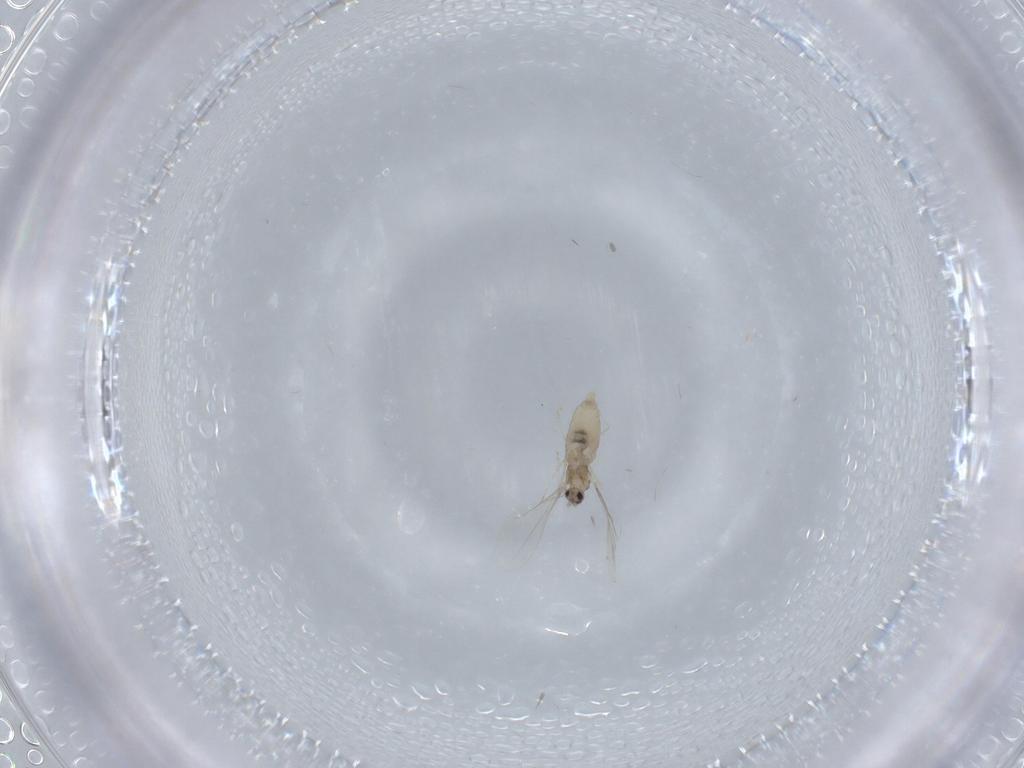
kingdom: Animalia
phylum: Arthropoda
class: Insecta
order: Diptera
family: Cecidomyiidae
